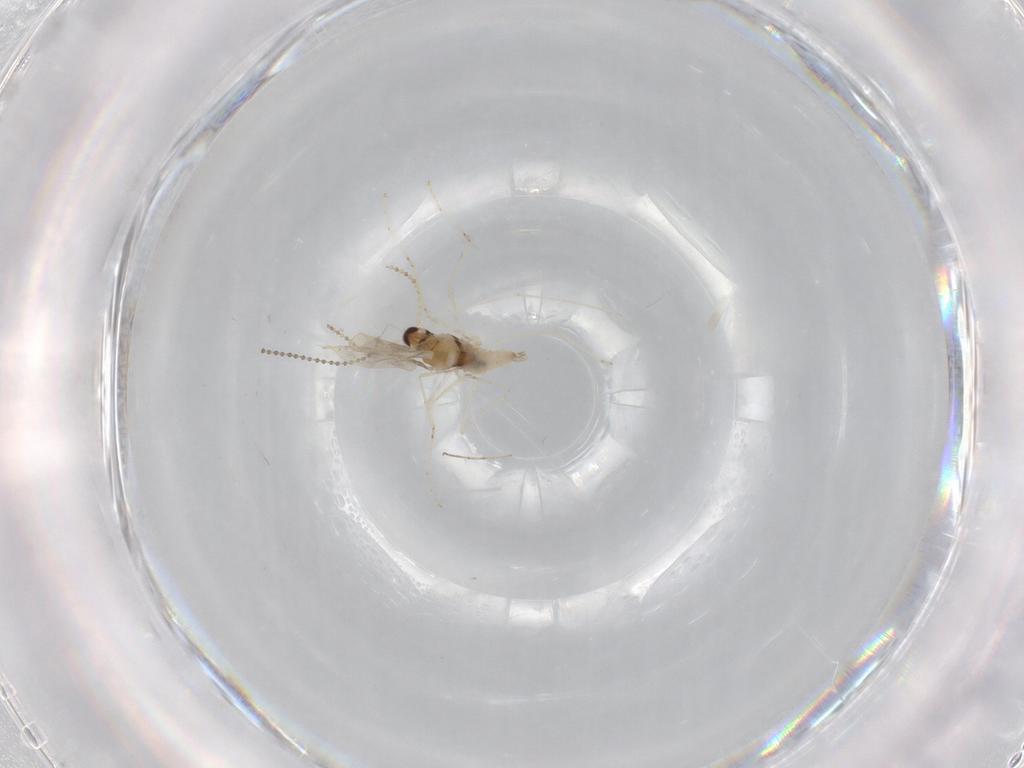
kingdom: Animalia
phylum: Arthropoda
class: Insecta
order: Diptera
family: Cecidomyiidae
